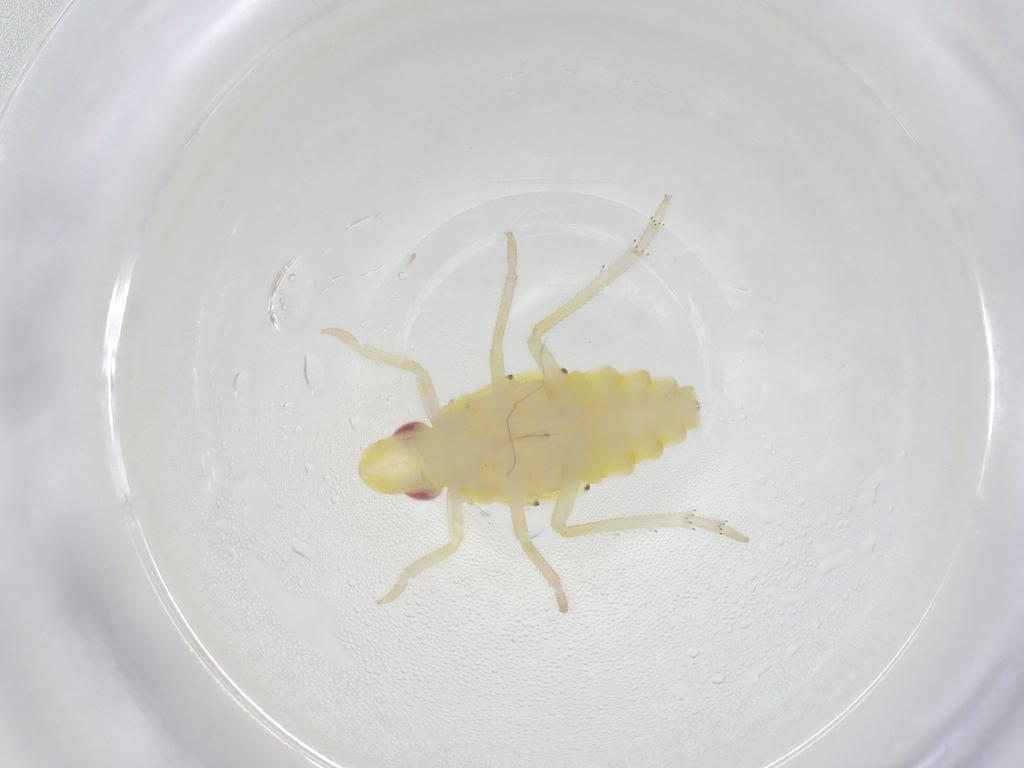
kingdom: Animalia
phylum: Arthropoda
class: Insecta
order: Hemiptera
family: Tropiduchidae
